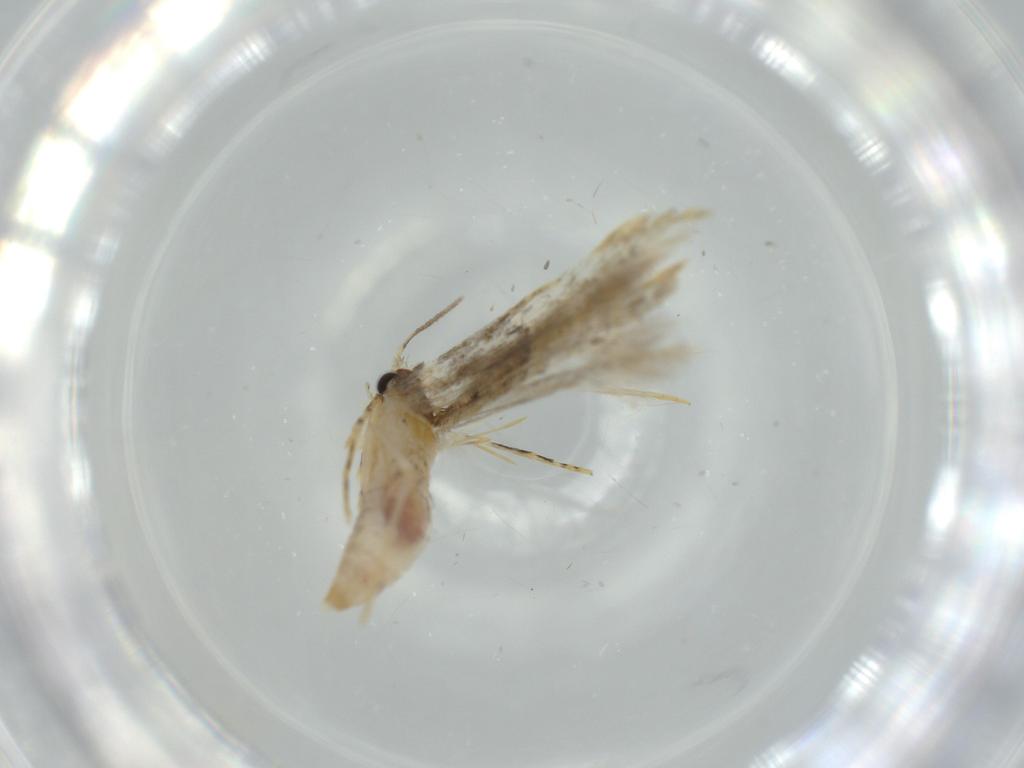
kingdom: Animalia
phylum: Arthropoda
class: Insecta
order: Lepidoptera
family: Tineidae
